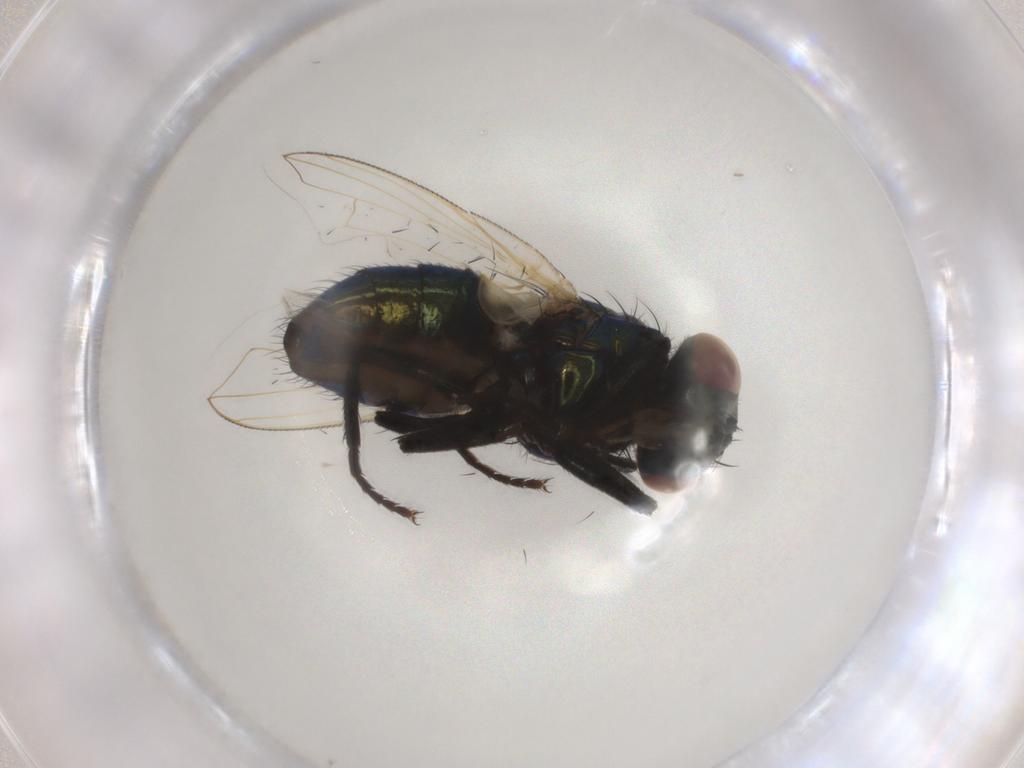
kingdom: Animalia
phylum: Arthropoda
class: Insecta
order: Diptera
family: Muscidae
